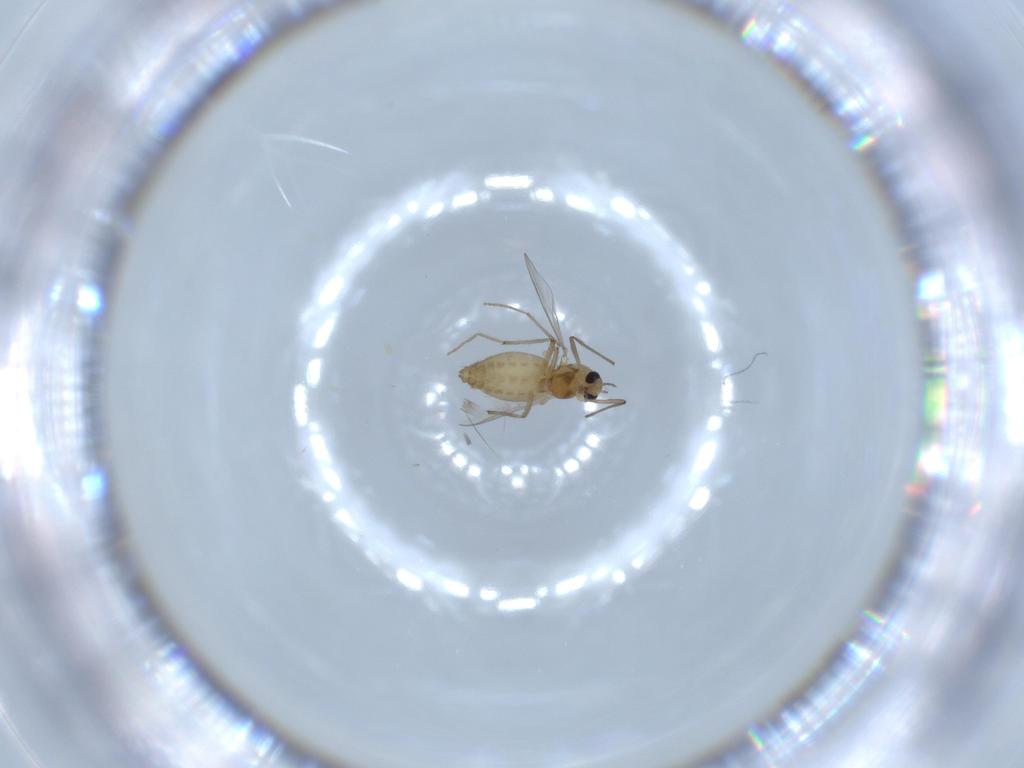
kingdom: Animalia
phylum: Arthropoda
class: Insecta
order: Diptera
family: Chironomidae
